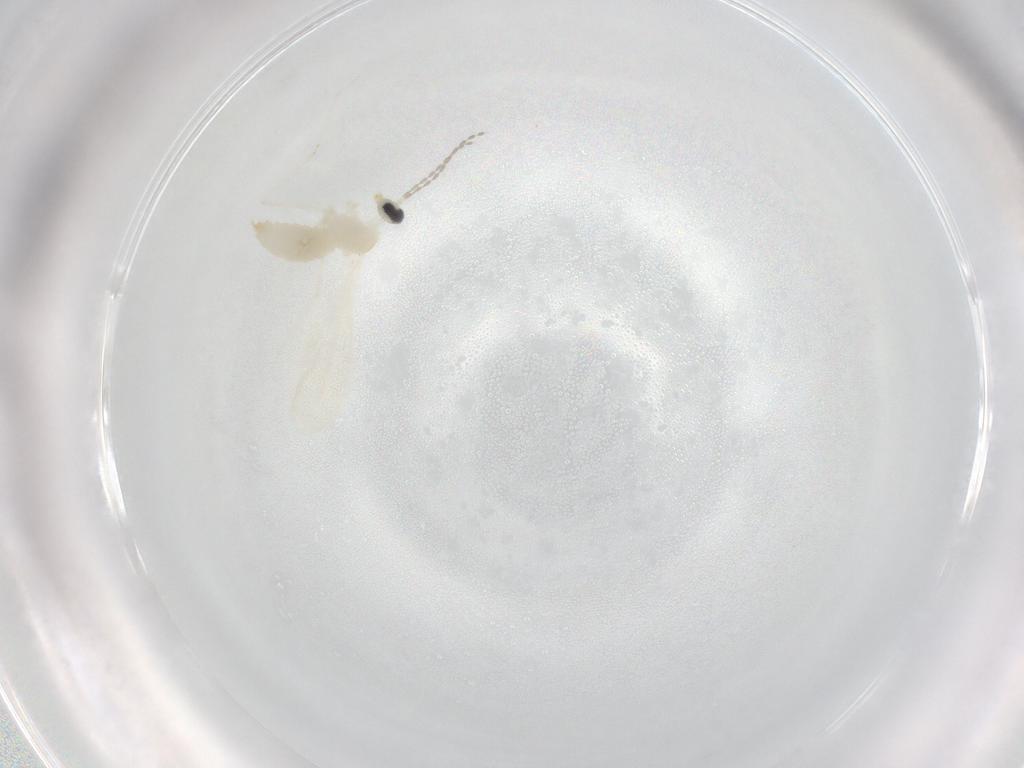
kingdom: Animalia
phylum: Arthropoda
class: Insecta
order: Diptera
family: Cecidomyiidae
